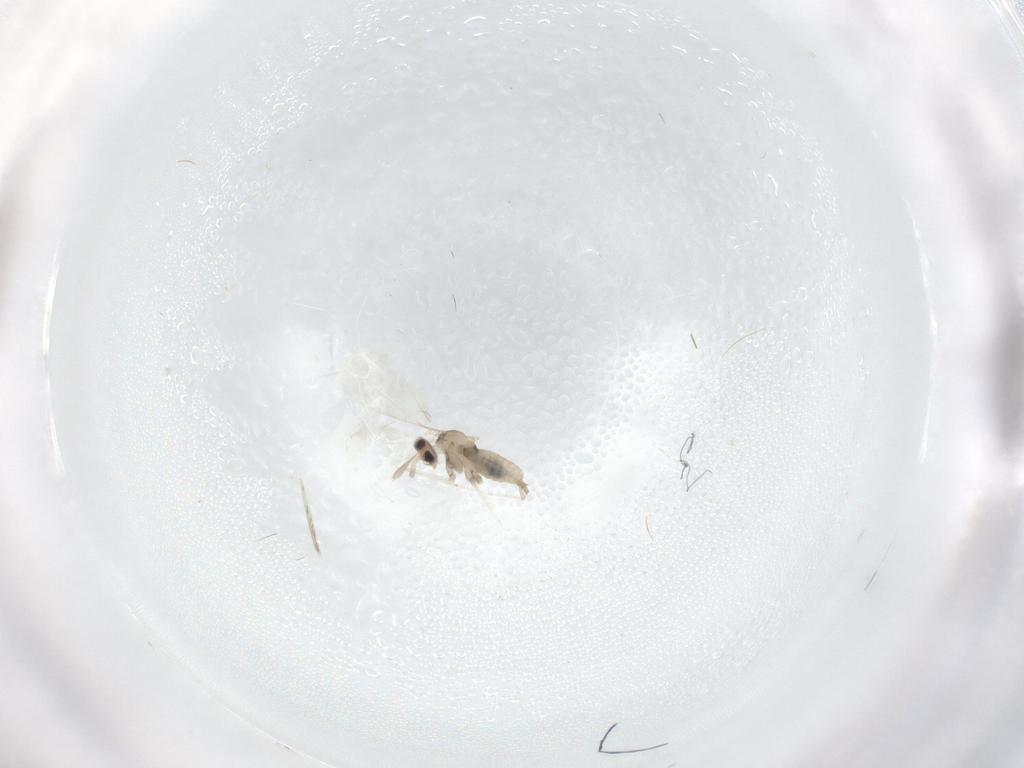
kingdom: Animalia
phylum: Arthropoda
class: Insecta
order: Diptera
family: Cecidomyiidae
